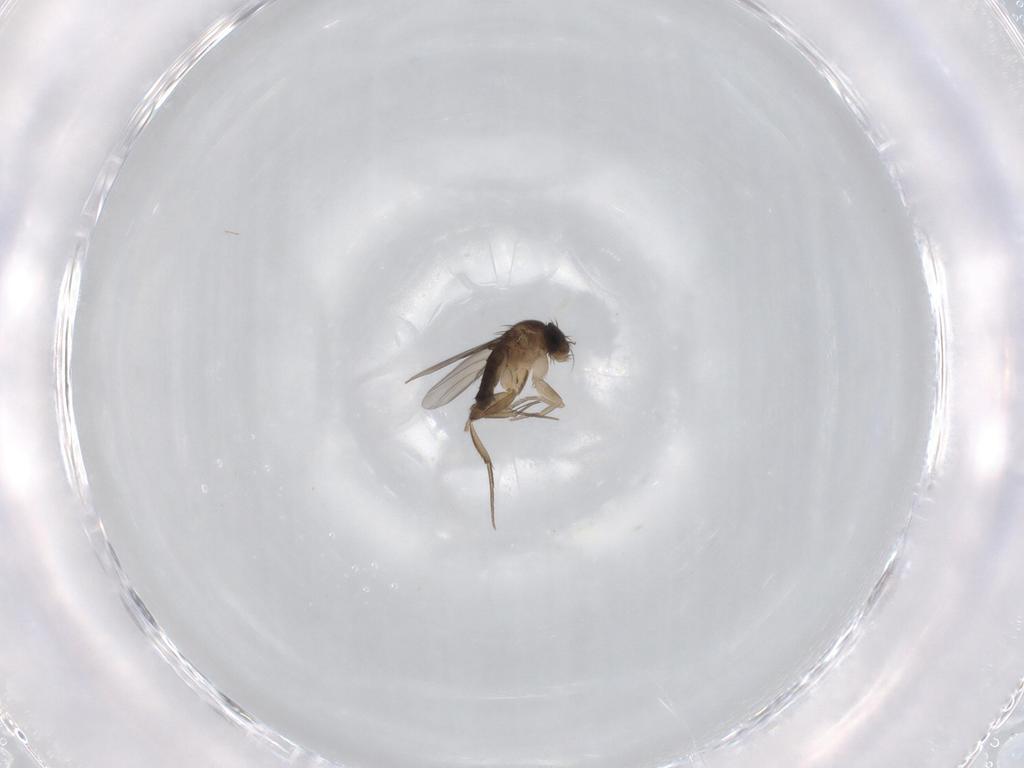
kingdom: Animalia
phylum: Arthropoda
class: Insecta
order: Diptera
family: Phoridae
